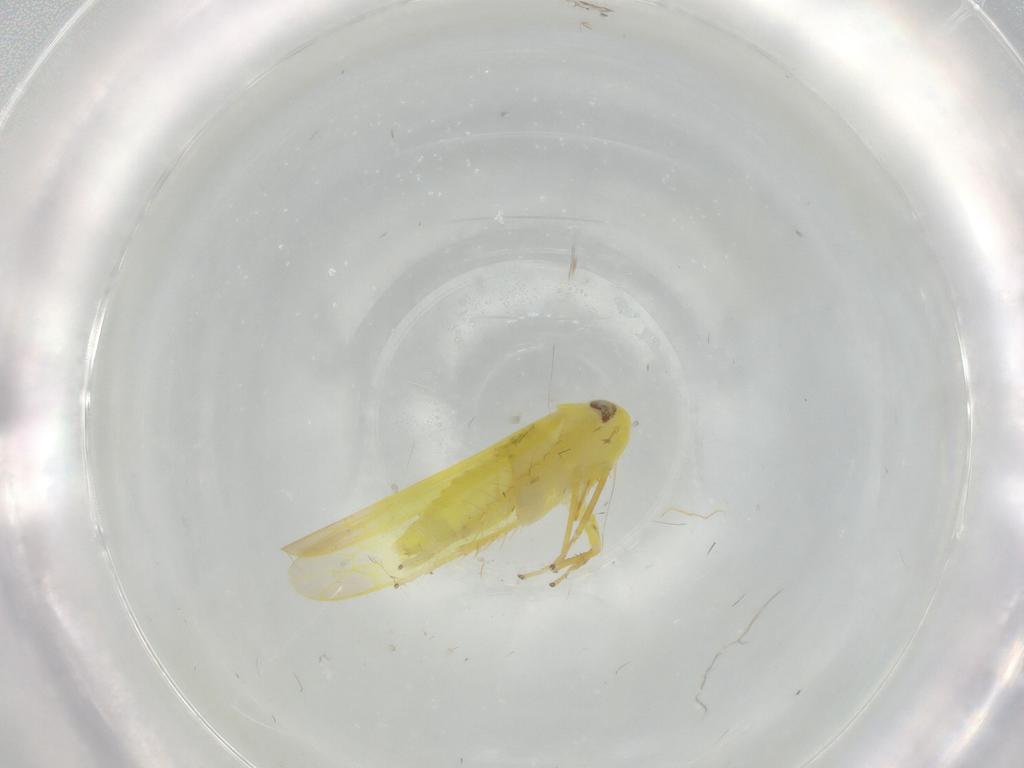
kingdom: Animalia
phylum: Arthropoda
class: Insecta
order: Hemiptera
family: Cicadellidae
